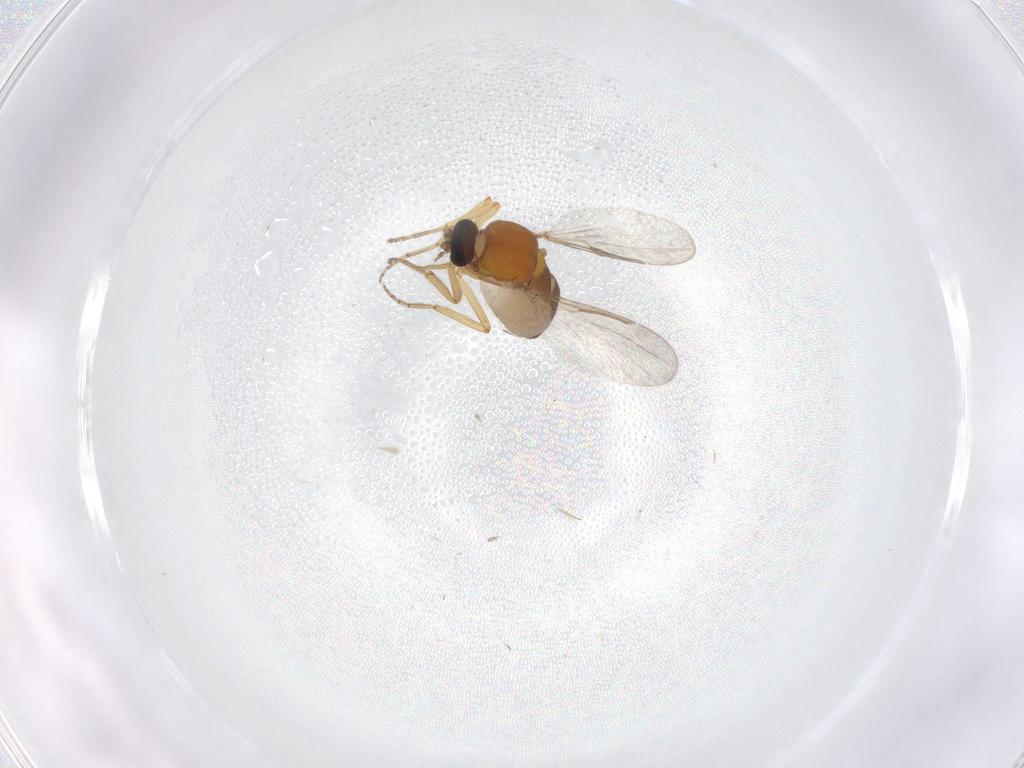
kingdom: Animalia
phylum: Arthropoda
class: Insecta
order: Diptera
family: Ceratopogonidae
